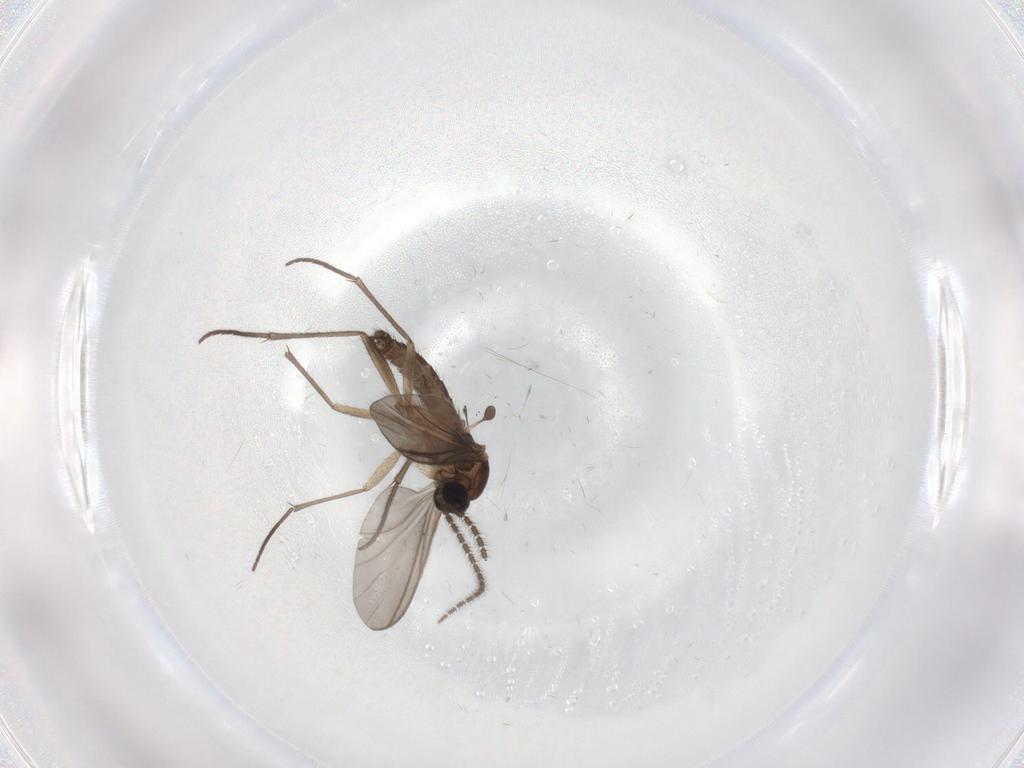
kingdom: Animalia
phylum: Arthropoda
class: Insecta
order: Diptera
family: Sciaridae
